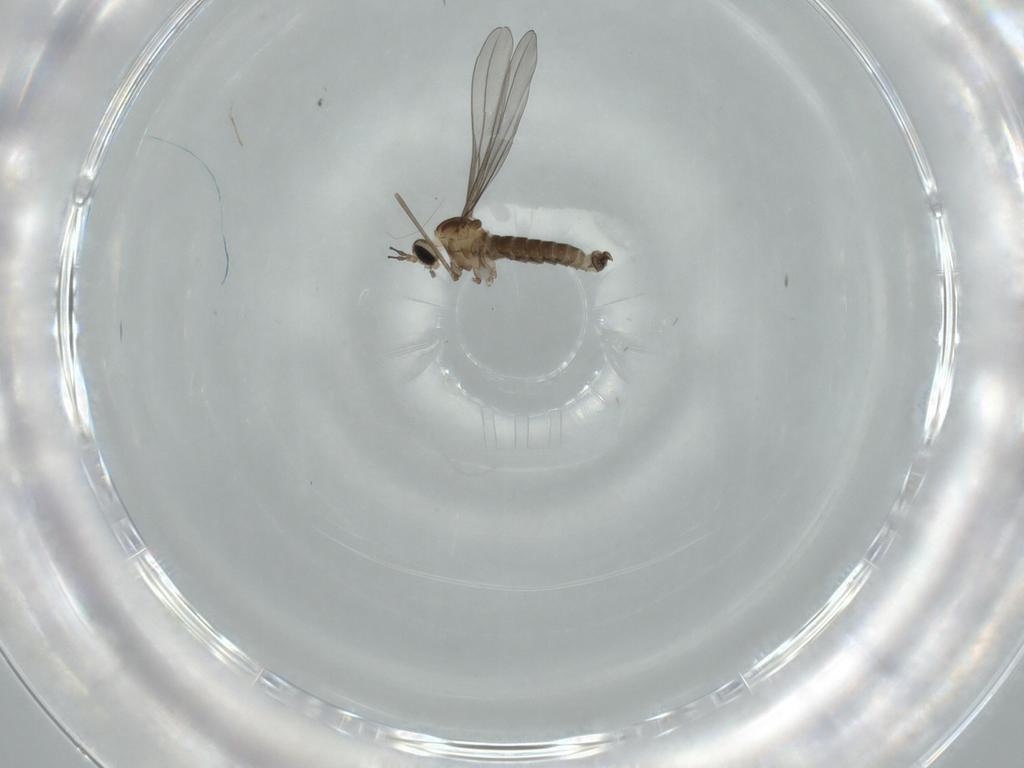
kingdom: Animalia
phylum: Arthropoda
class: Insecta
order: Diptera
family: Cecidomyiidae
